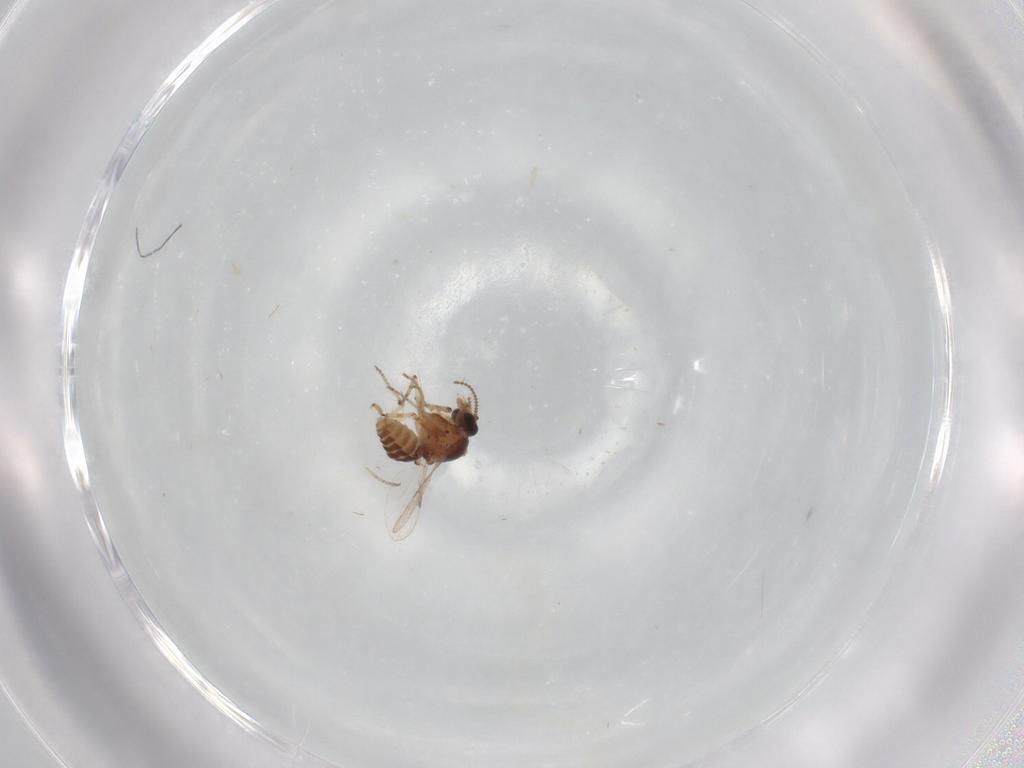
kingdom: Animalia
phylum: Arthropoda
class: Insecta
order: Diptera
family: Ceratopogonidae
